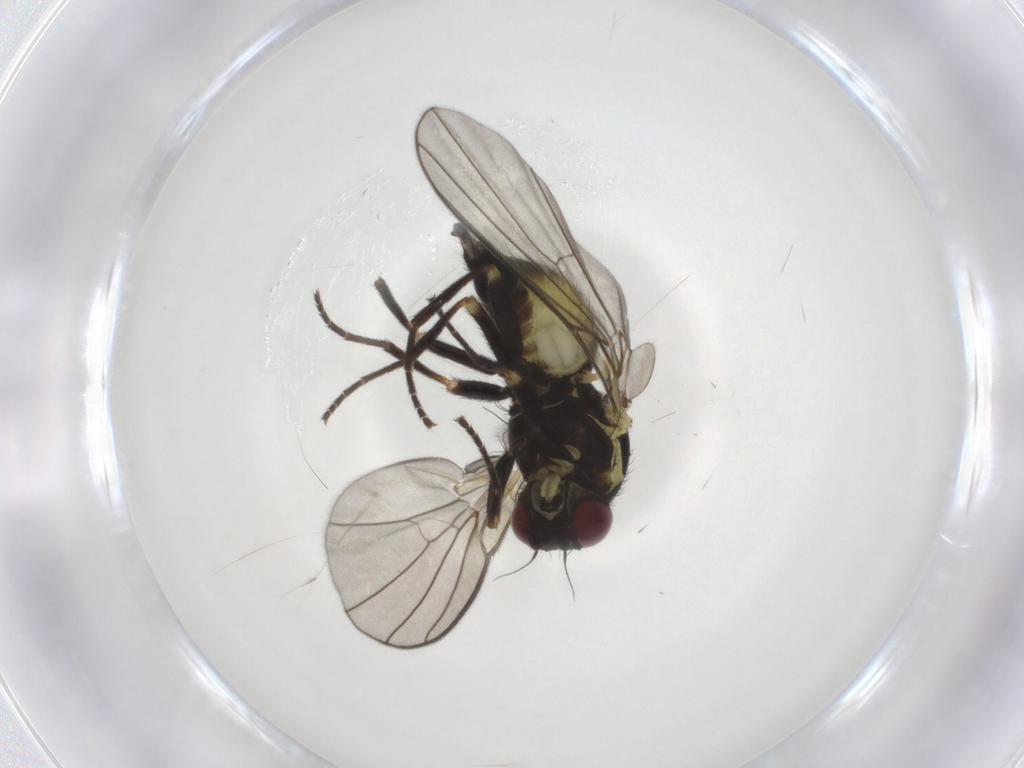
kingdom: Animalia
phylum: Arthropoda
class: Insecta
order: Diptera
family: Agromyzidae
